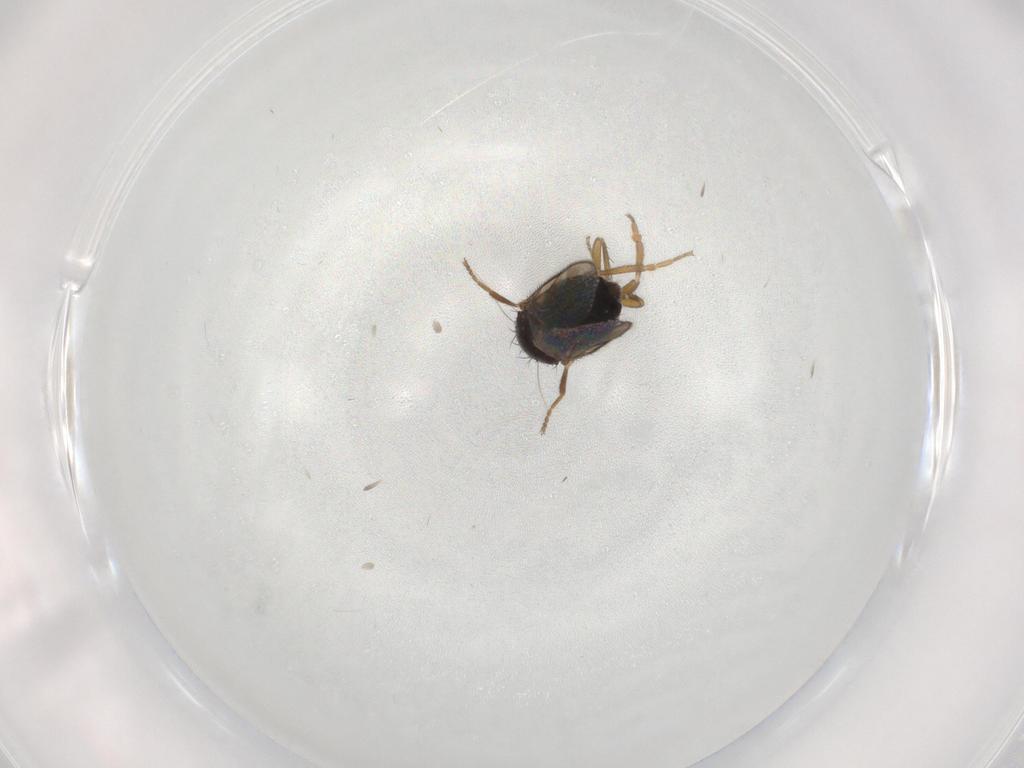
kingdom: Animalia
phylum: Arthropoda
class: Insecta
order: Diptera
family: Sphaeroceridae
